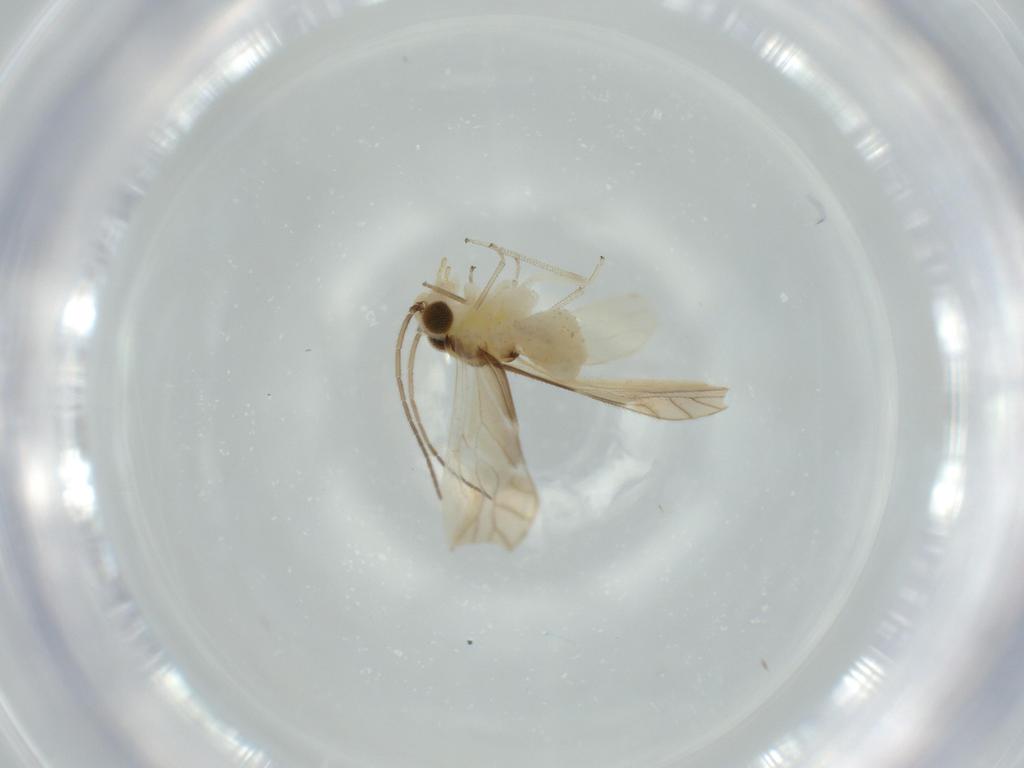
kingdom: Animalia
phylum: Arthropoda
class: Insecta
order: Psocodea
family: Caeciliusidae
